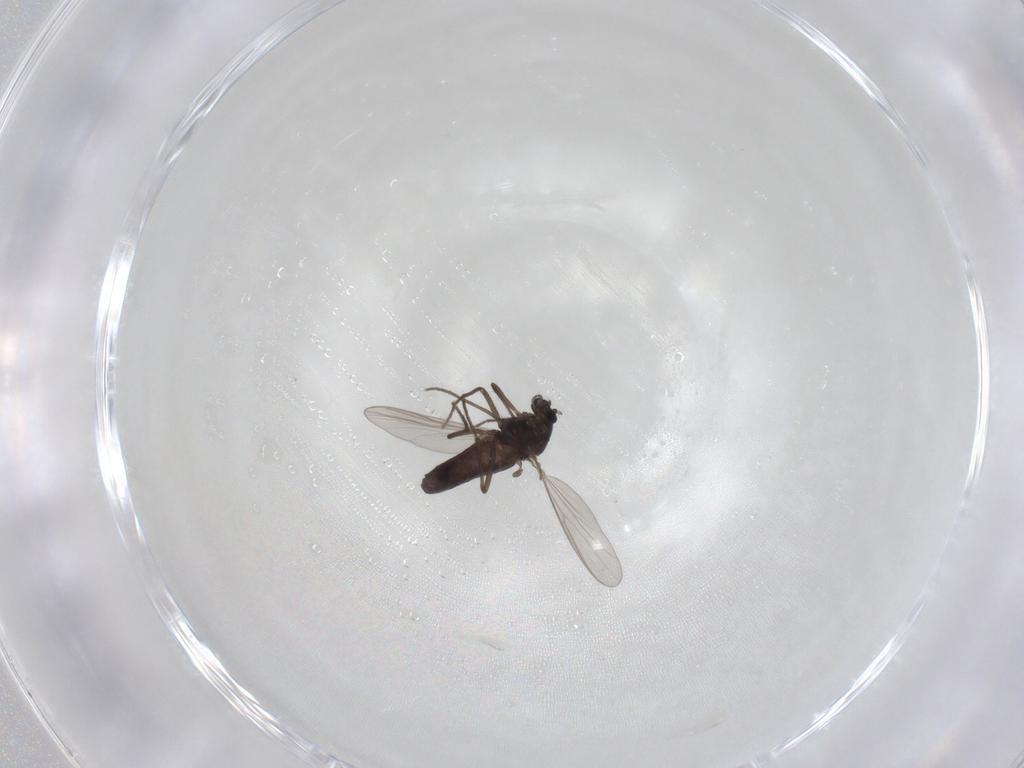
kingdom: Animalia
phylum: Arthropoda
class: Insecta
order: Diptera
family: Chironomidae
